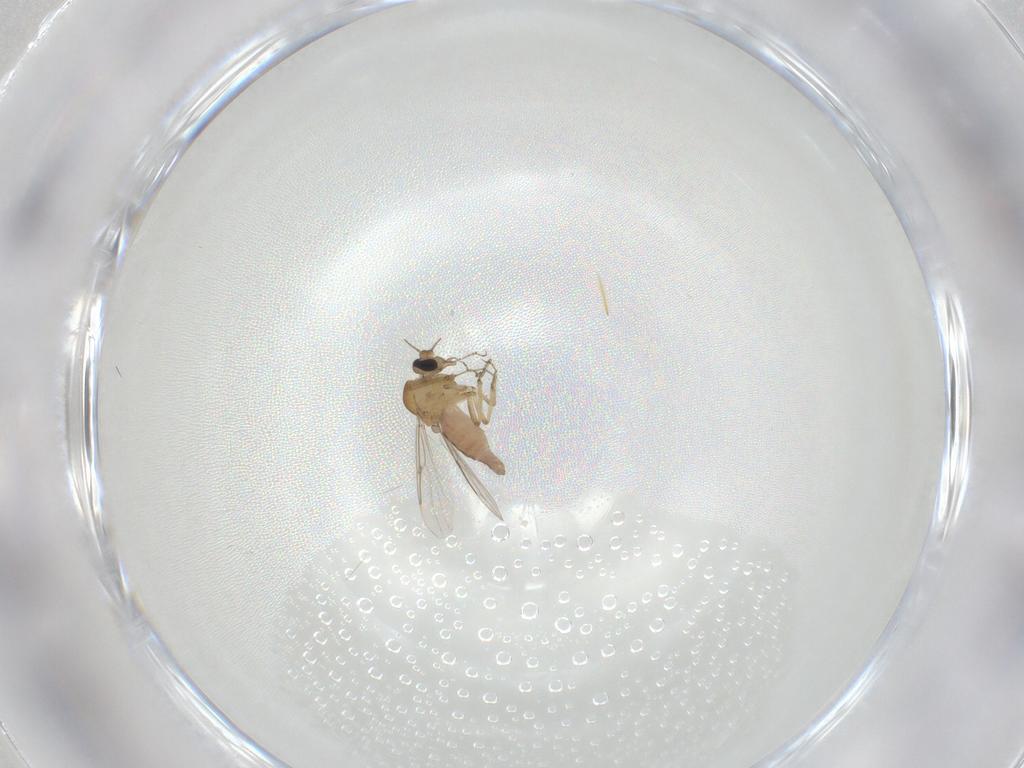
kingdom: Animalia
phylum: Arthropoda
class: Insecta
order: Diptera
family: Ceratopogonidae
